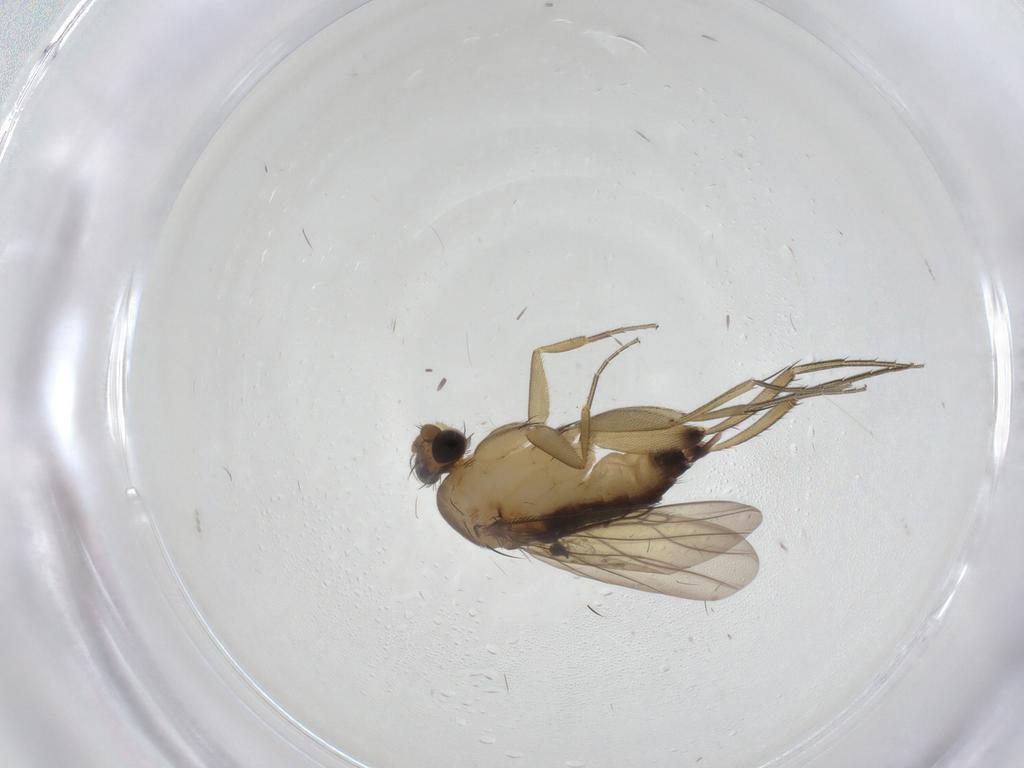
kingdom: Animalia
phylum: Arthropoda
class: Insecta
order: Diptera
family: Phoridae
